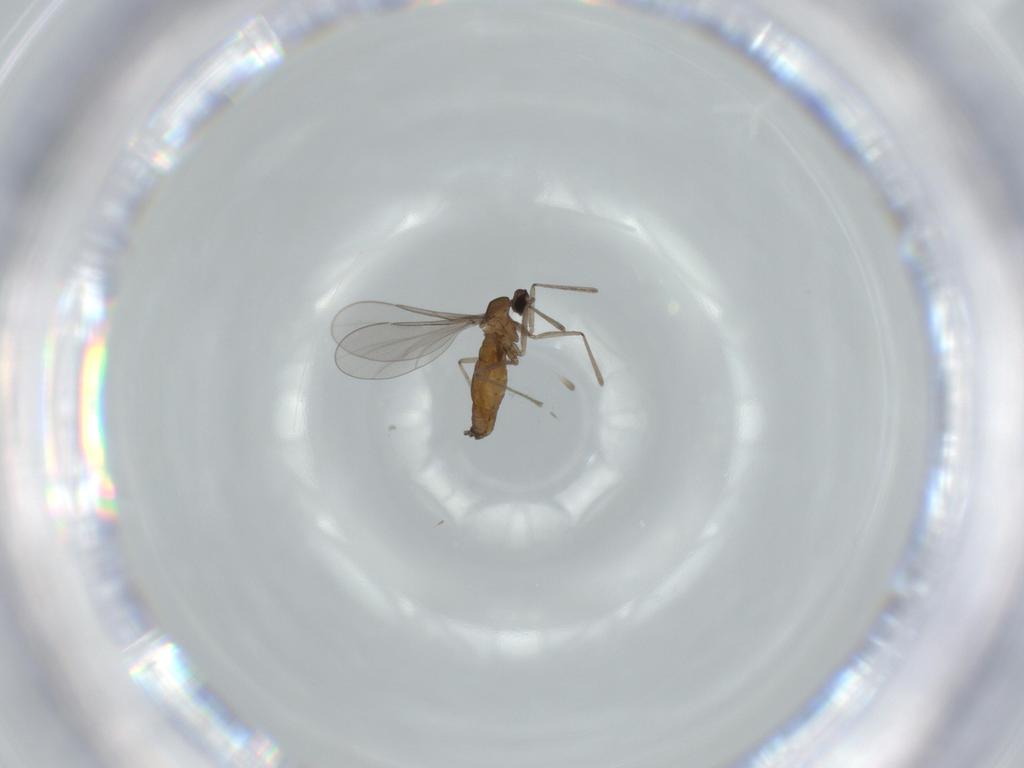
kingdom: Animalia
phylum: Arthropoda
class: Insecta
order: Diptera
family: Cecidomyiidae
